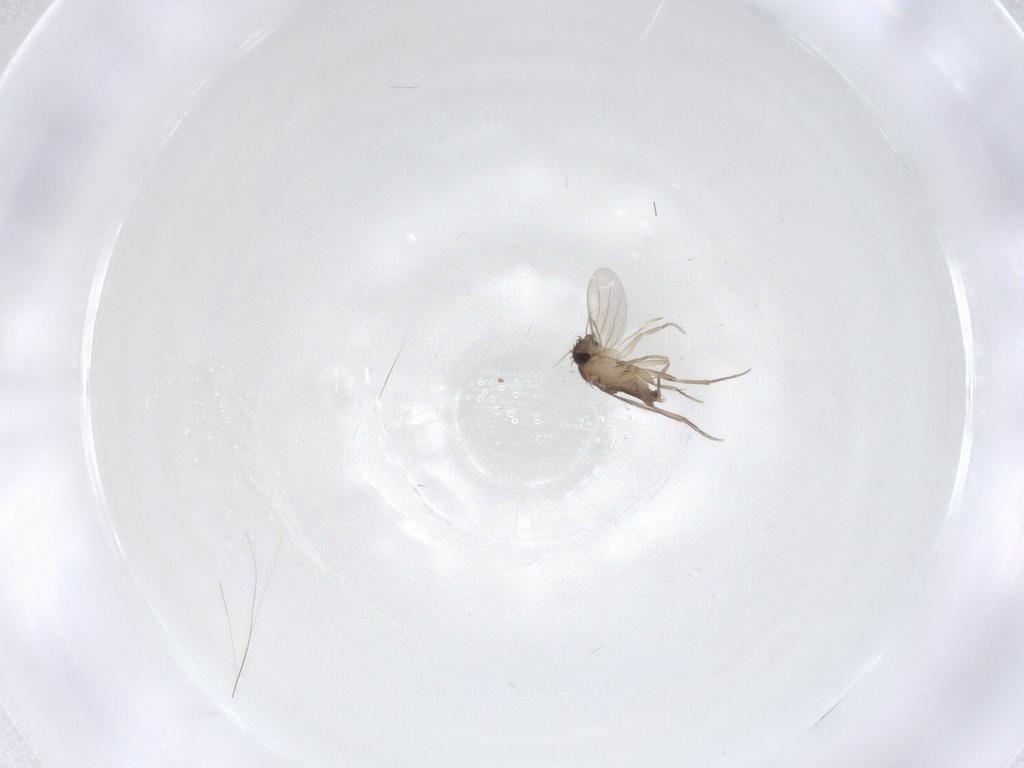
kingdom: Animalia
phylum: Arthropoda
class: Insecta
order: Diptera
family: Phoridae
